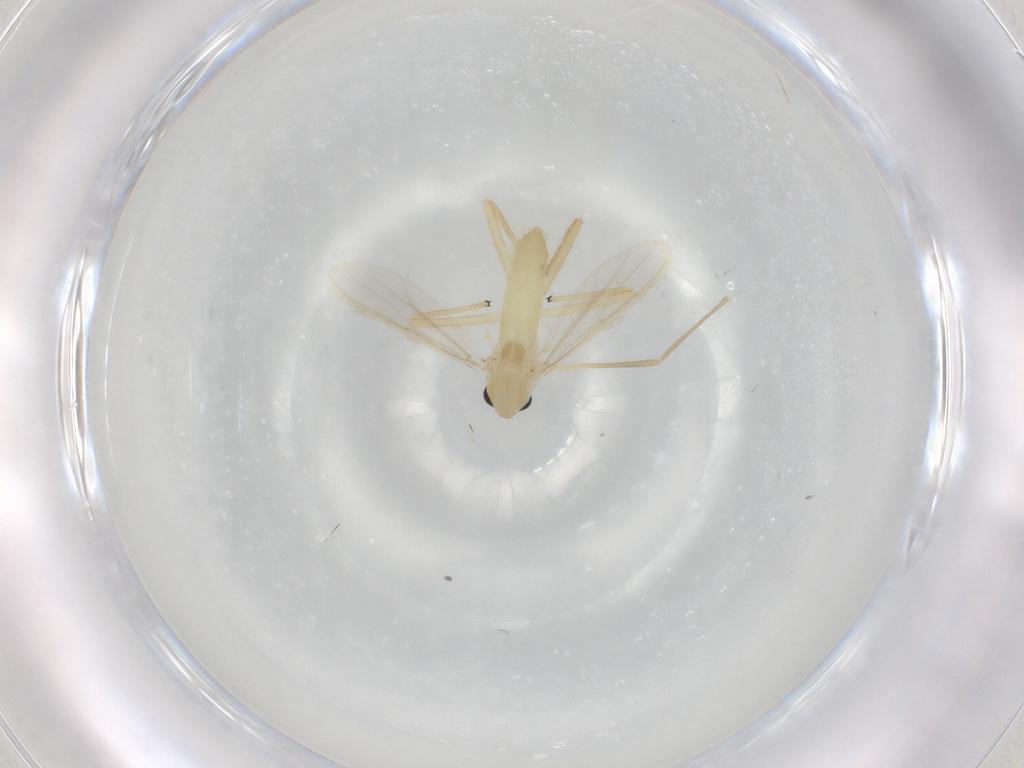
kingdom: Animalia
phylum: Arthropoda
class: Insecta
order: Diptera
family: Chironomidae
